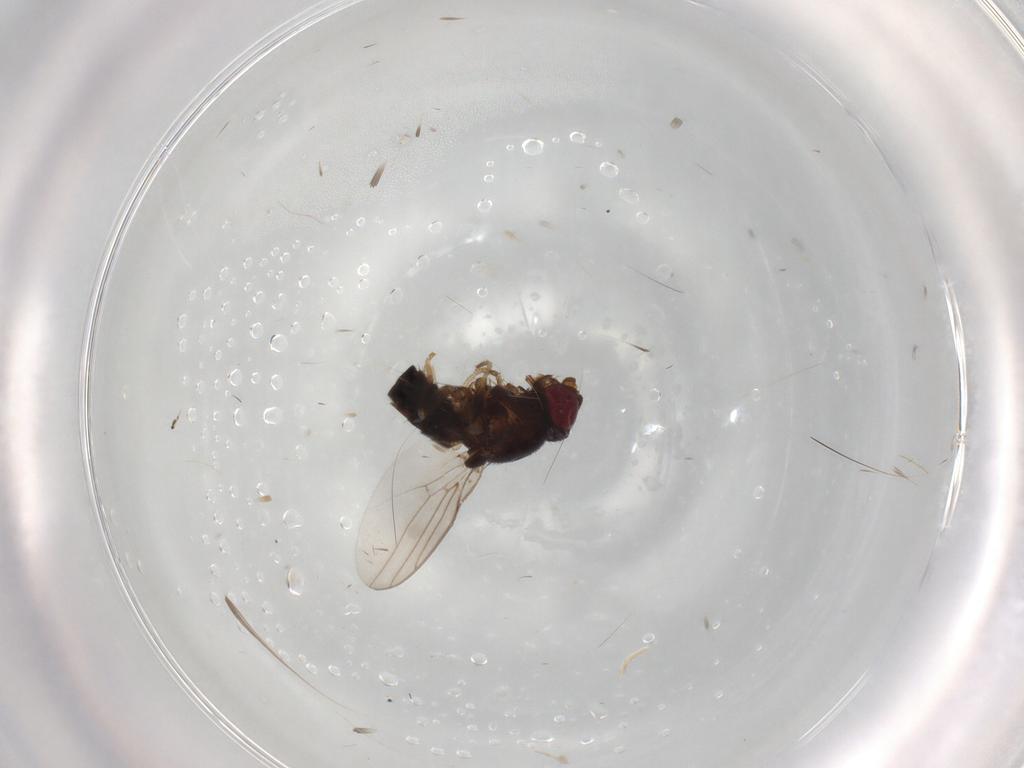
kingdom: Animalia
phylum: Arthropoda
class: Insecta
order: Diptera
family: Chloropidae
